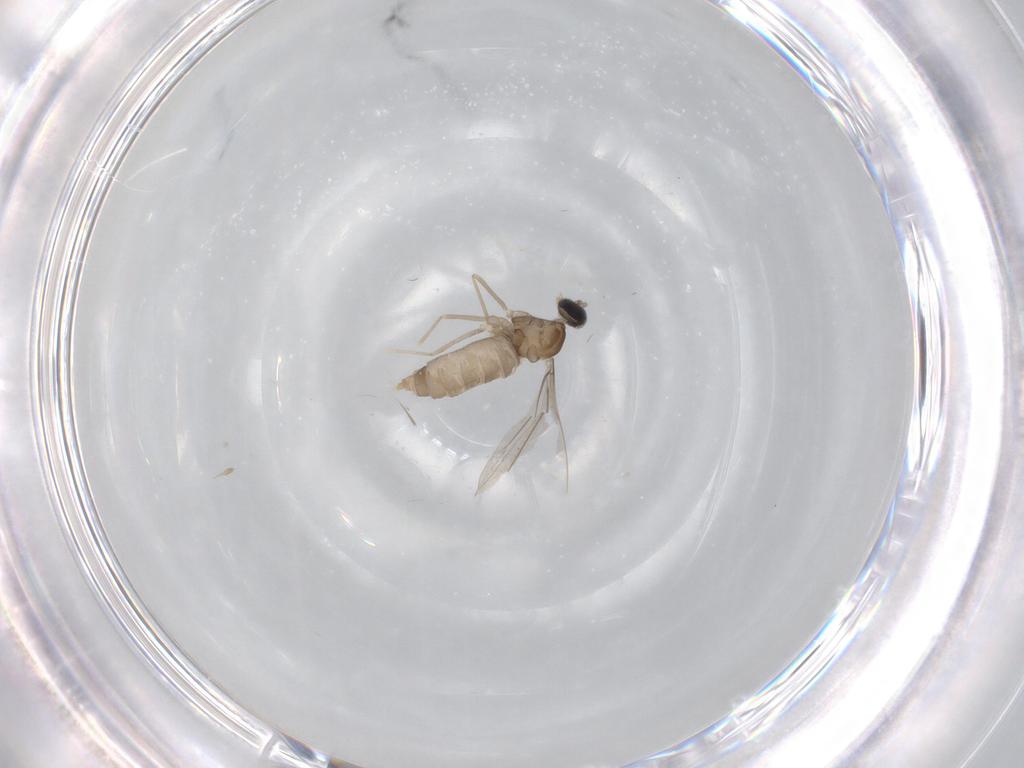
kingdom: Animalia
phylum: Arthropoda
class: Insecta
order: Diptera
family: Cecidomyiidae
